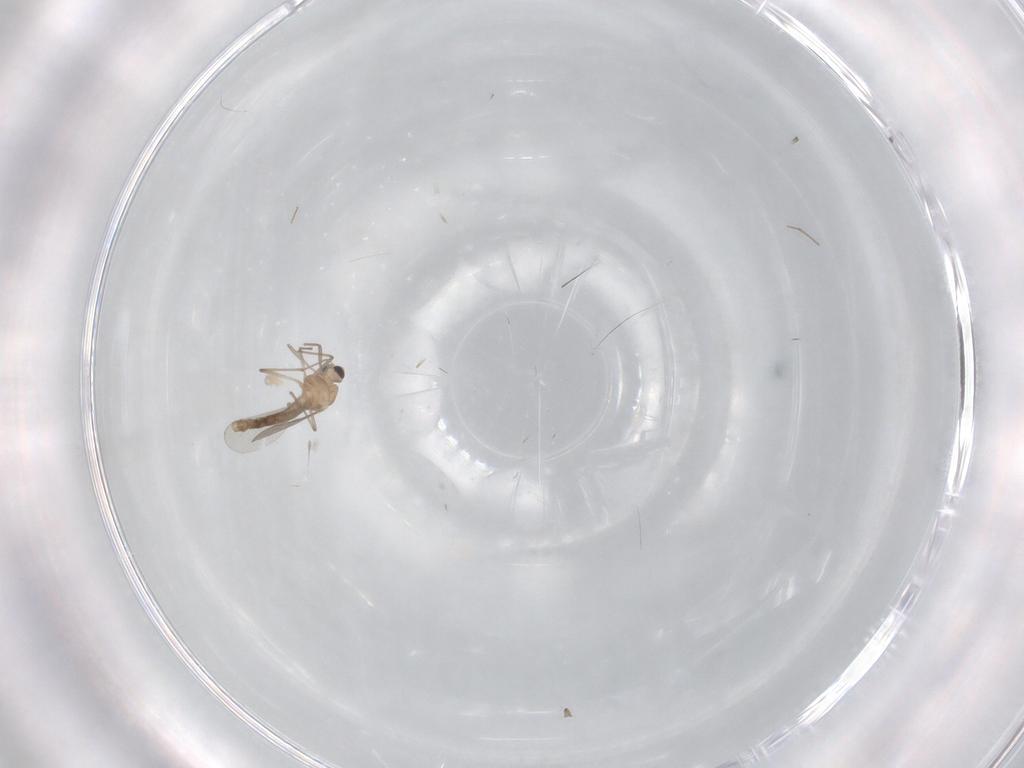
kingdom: Animalia
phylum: Arthropoda
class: Insecta
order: Diptera
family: Chironomidae
